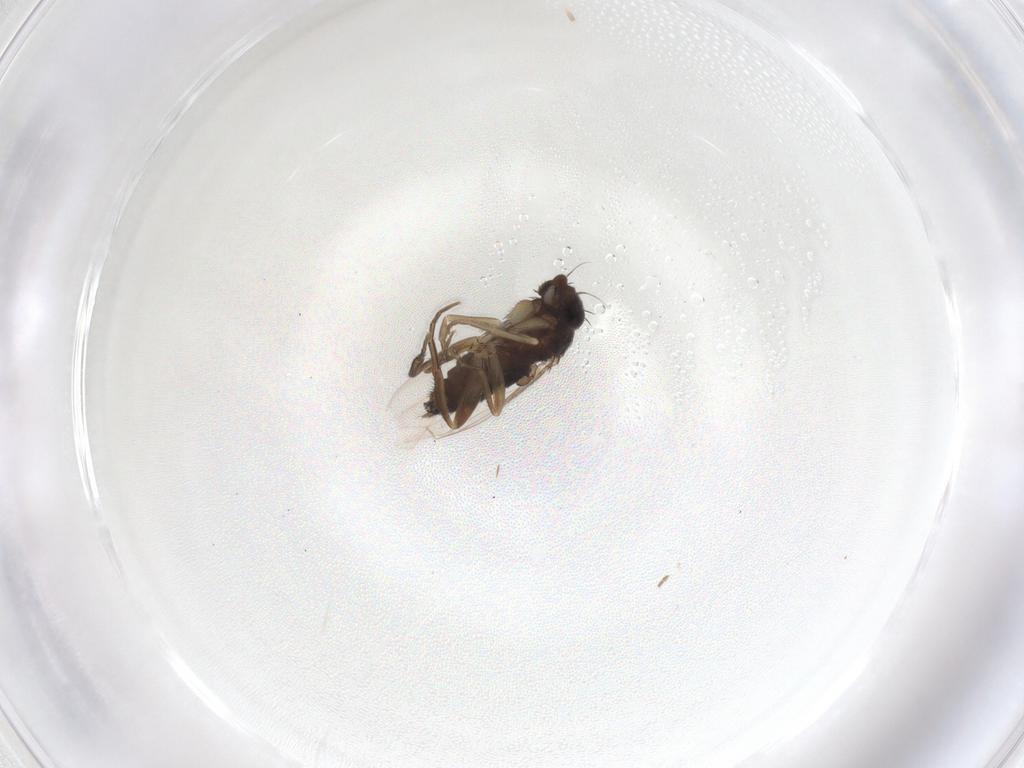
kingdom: Animalia
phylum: Arthropoda
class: Insecta
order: Diptera
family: Phoridae
